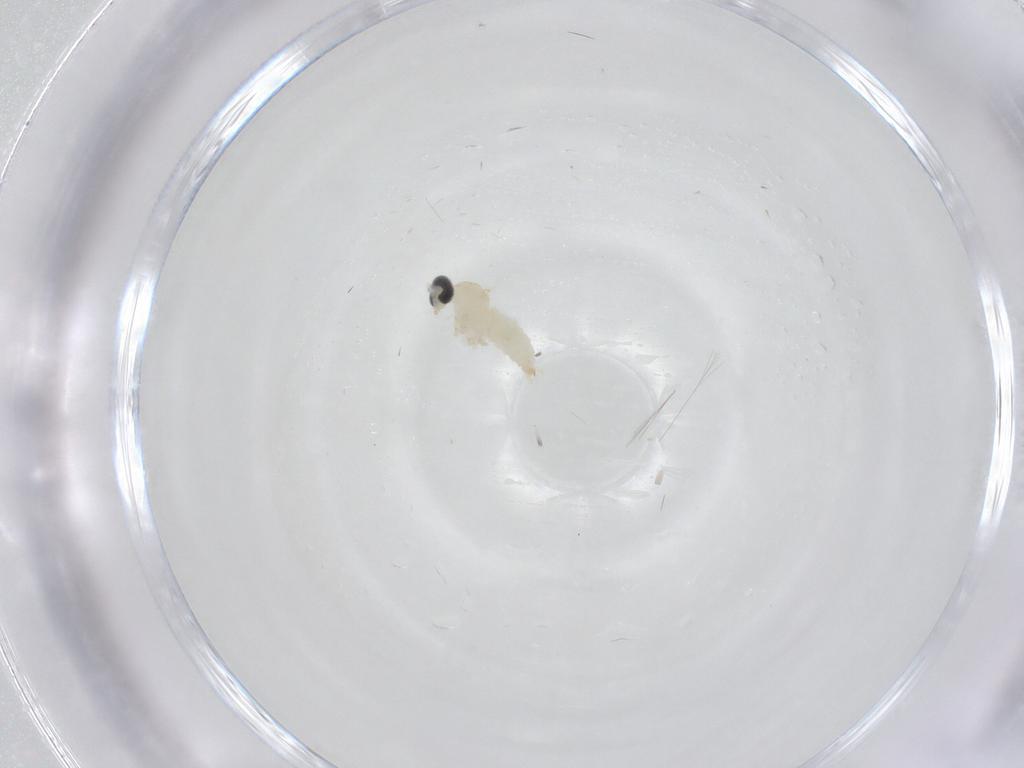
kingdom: Animalia
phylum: Arthropoda
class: Insecta
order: Diptera
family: Cecidomyiidae
